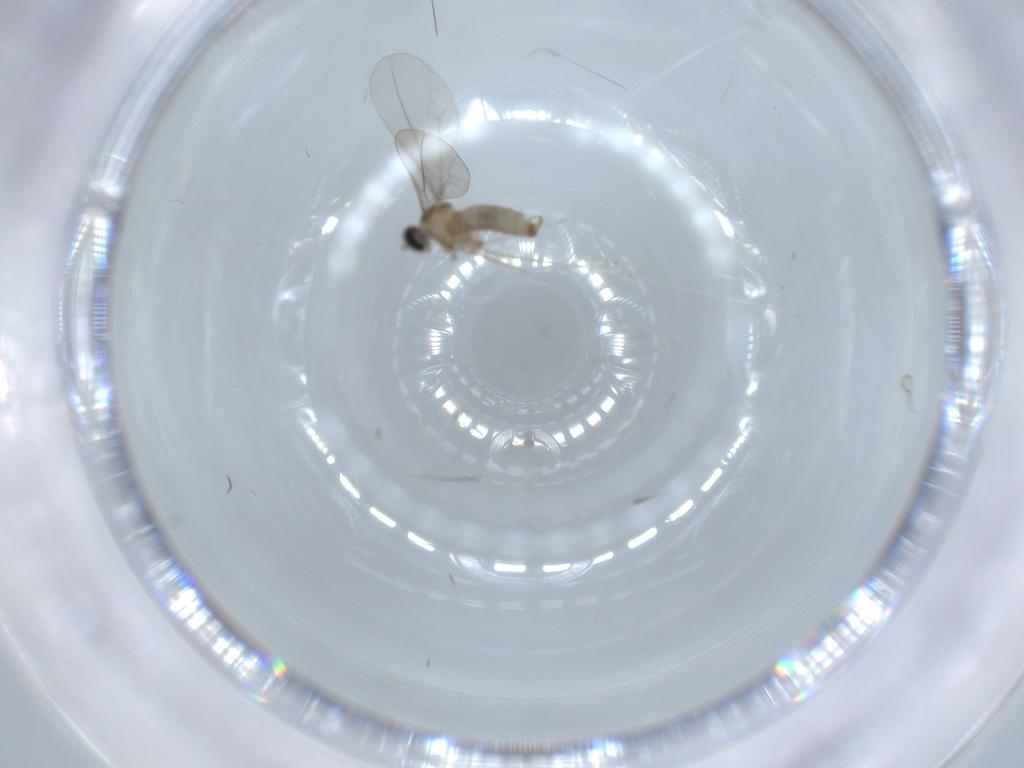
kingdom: Animalia
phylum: Arthropoda
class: Insecta
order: Diptera
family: Cecidomyiidae
